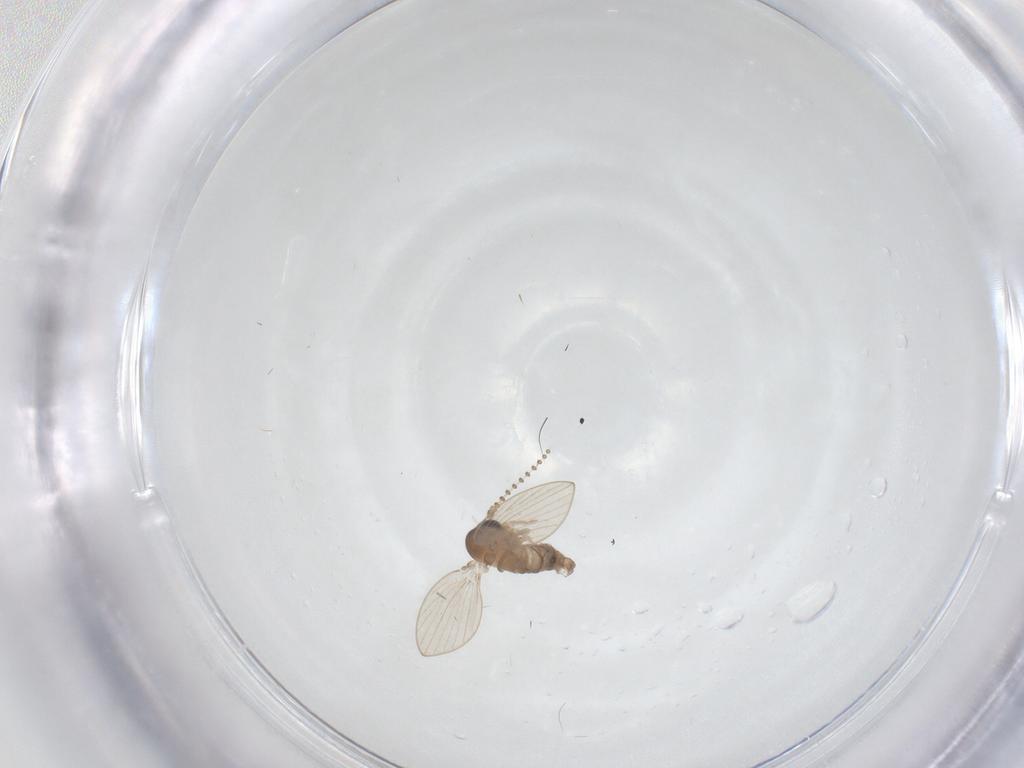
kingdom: Animalia
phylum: Arthropoda
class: Insecta
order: Diptera
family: Psychodidae
